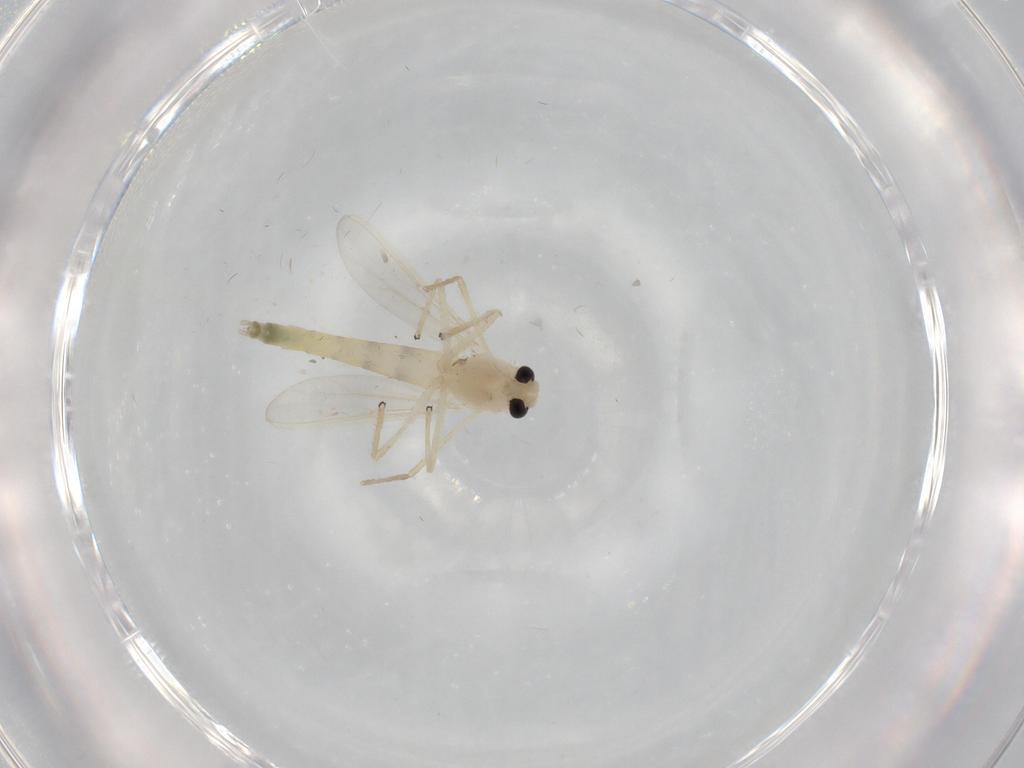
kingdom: Animalia
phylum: Arthropoda
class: Insecta
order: Diptera
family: Chironomidae
